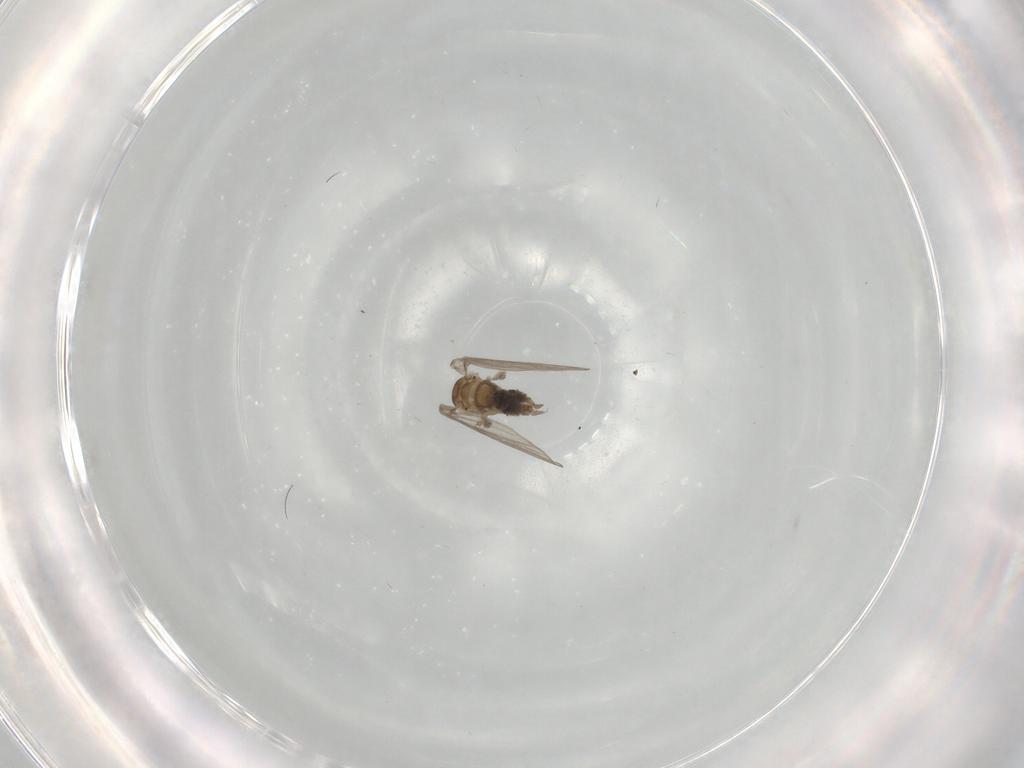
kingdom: Animalia
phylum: Arthropoda
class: Insecta
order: Diptera
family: Psychodidae
